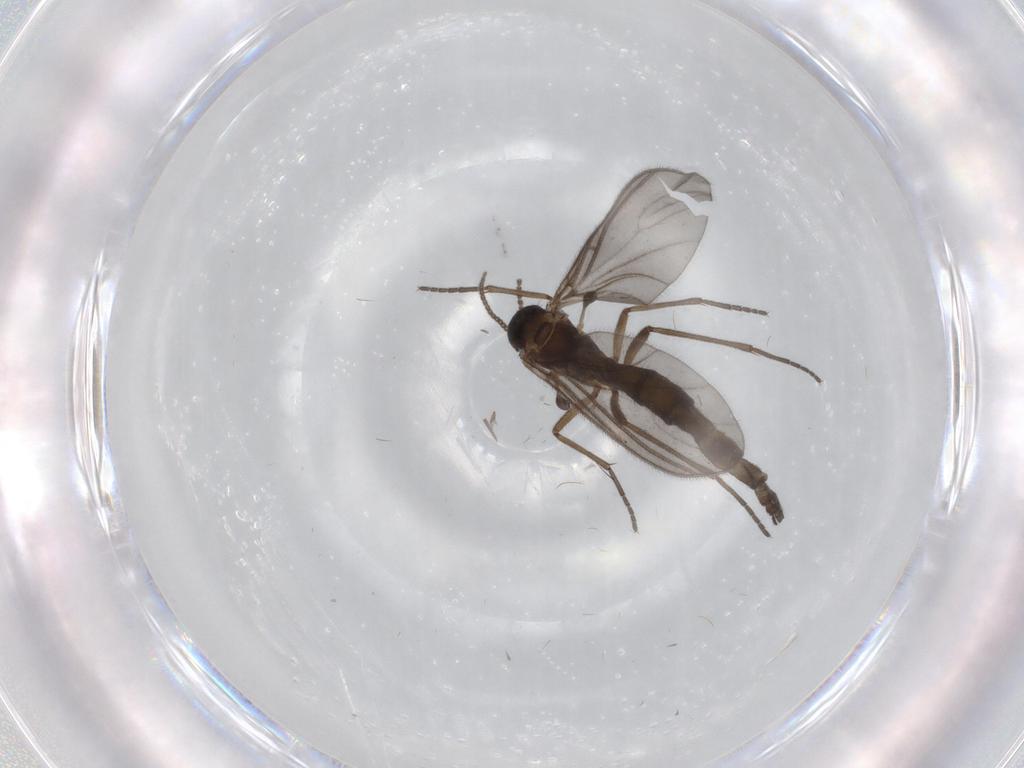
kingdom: Animalia
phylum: Arthropoda
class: Insecta
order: Diptera
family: Sciaridae
